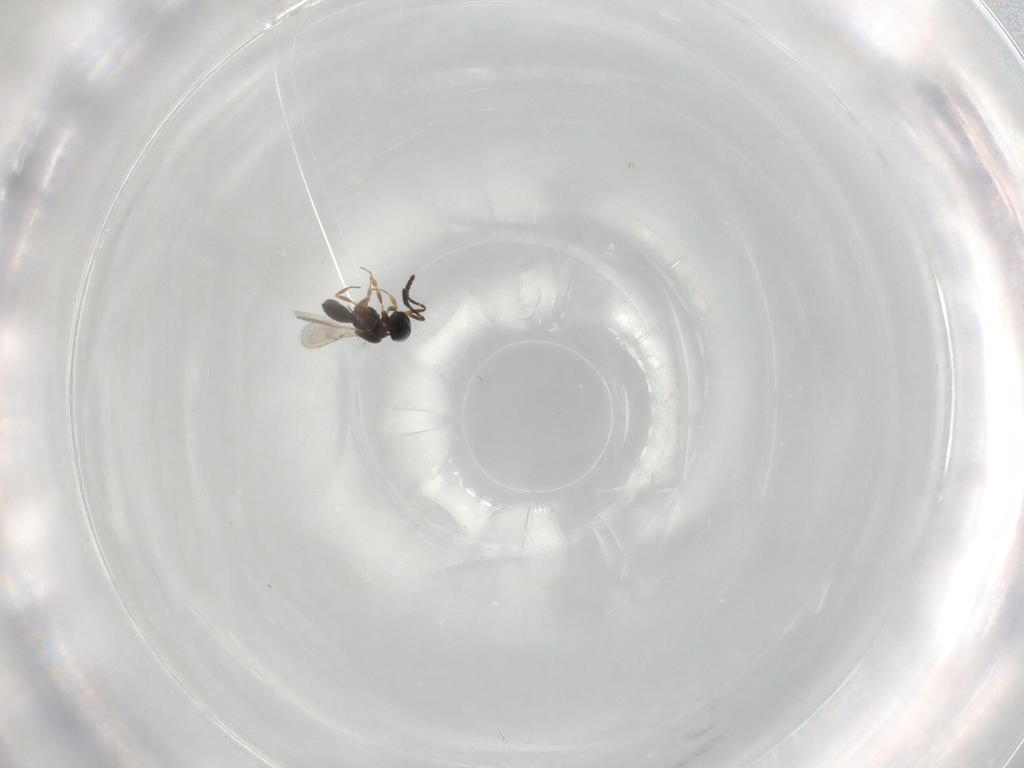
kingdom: Animalia
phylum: Arthropoda
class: Insecta
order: Hymenoptera
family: Scelionidae
